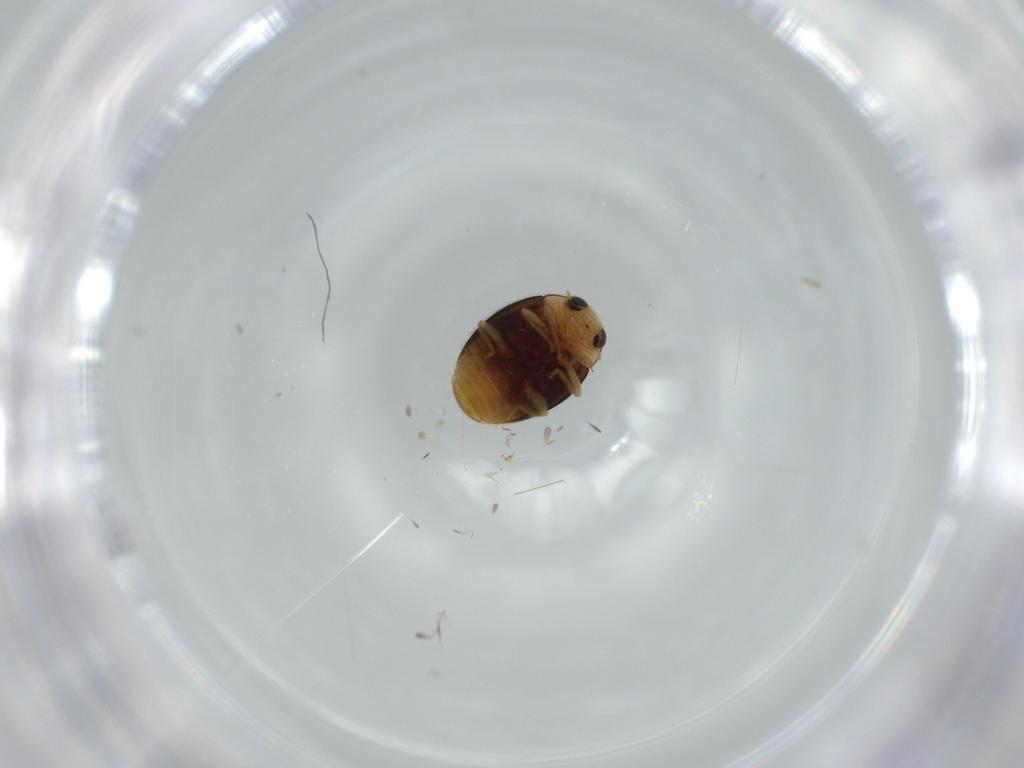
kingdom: Animalia
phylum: Arthropoda
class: Insecta
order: Coleoptera
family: Coccinellidae
